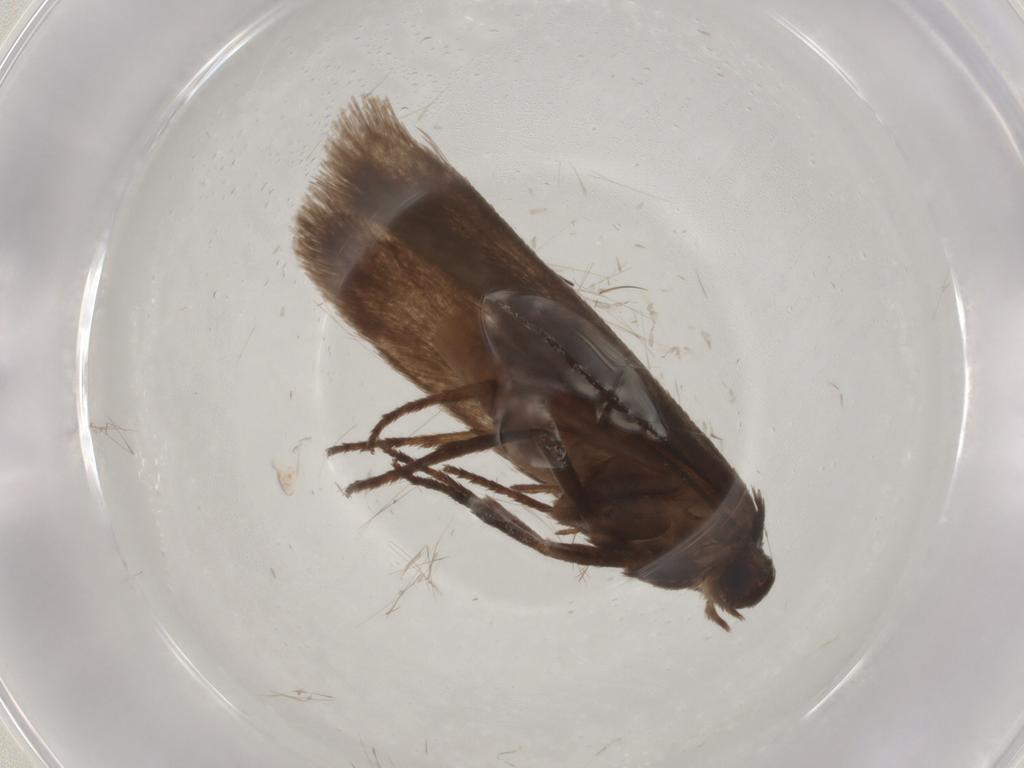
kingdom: Animalia
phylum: Arthropoda
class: Insecta
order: Lepidoptera
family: Limacodidae
